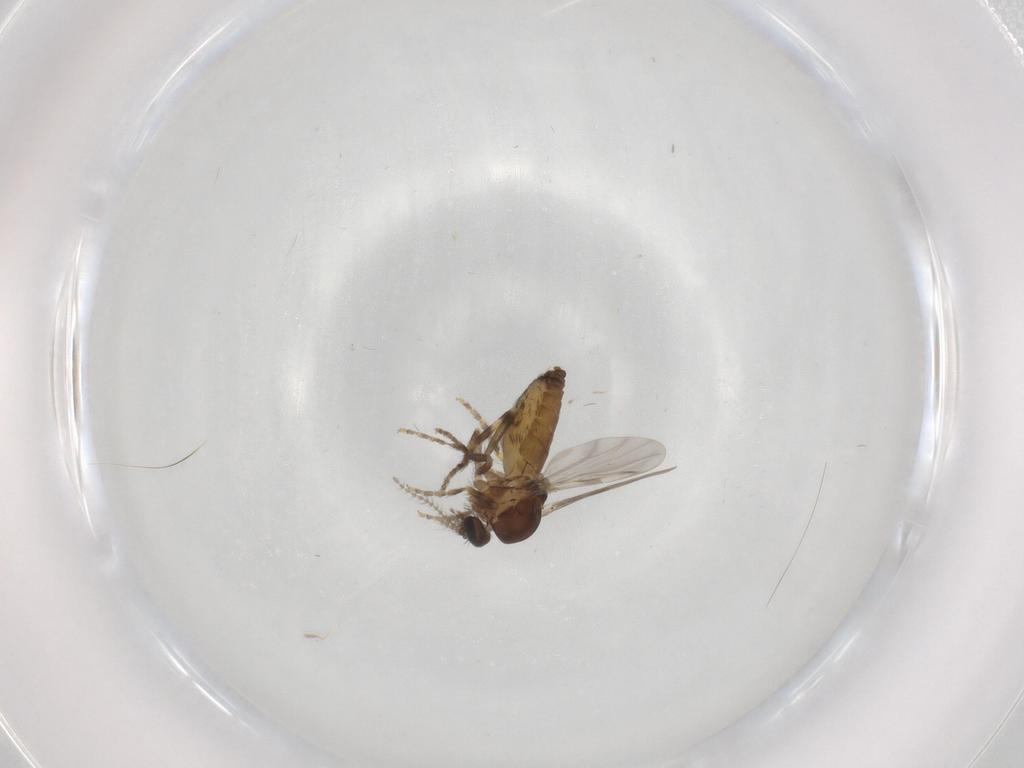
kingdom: Animalia
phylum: Arthropoda
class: Insecta
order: Diptera
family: Ceratopogonidae
